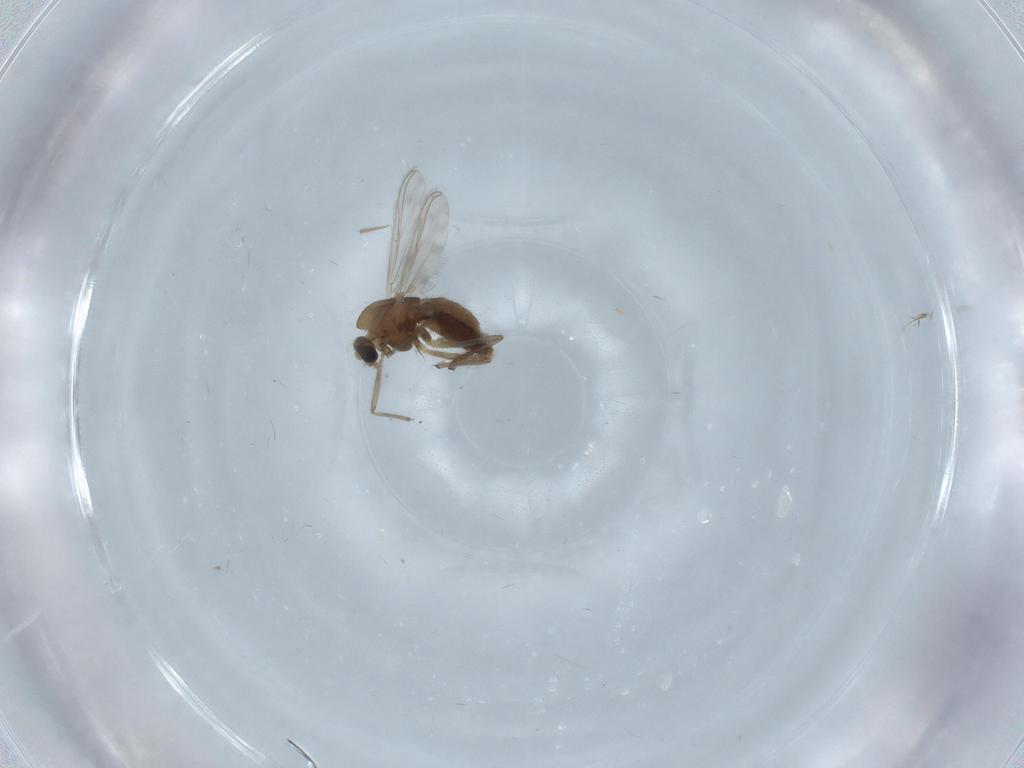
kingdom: Animalia
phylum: Arthropoda
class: Insecta
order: Diptera
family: Chironomidae
